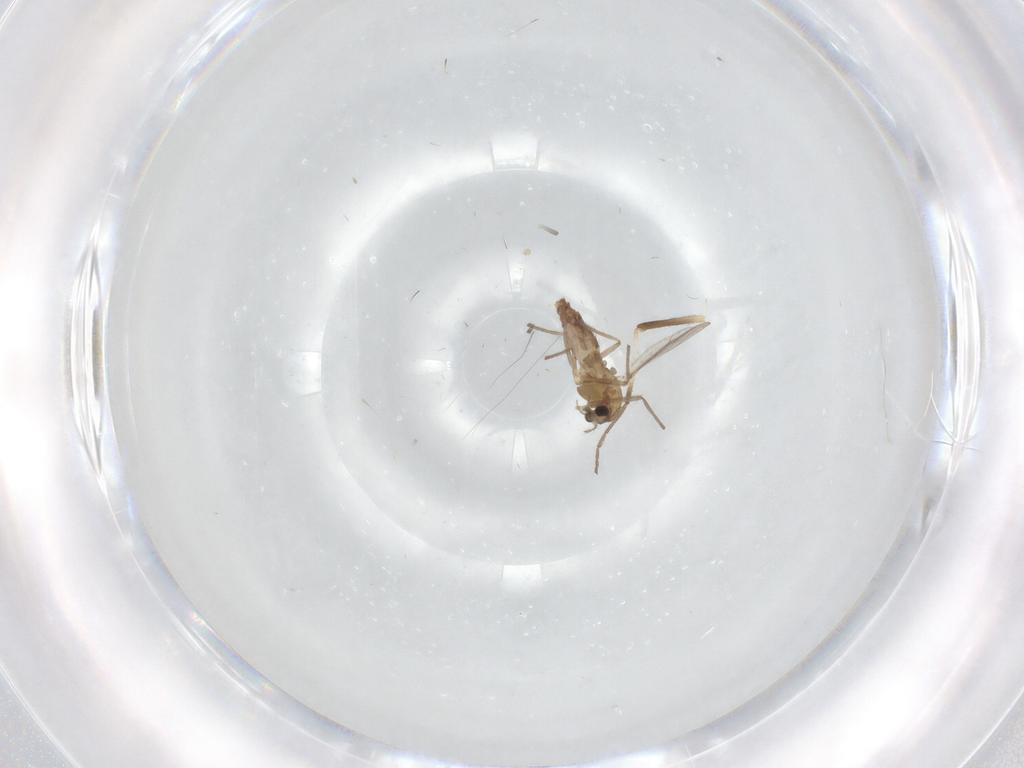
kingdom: Animalia
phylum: Arthropoda
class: Insecta
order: Diptera
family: Chironomidae
